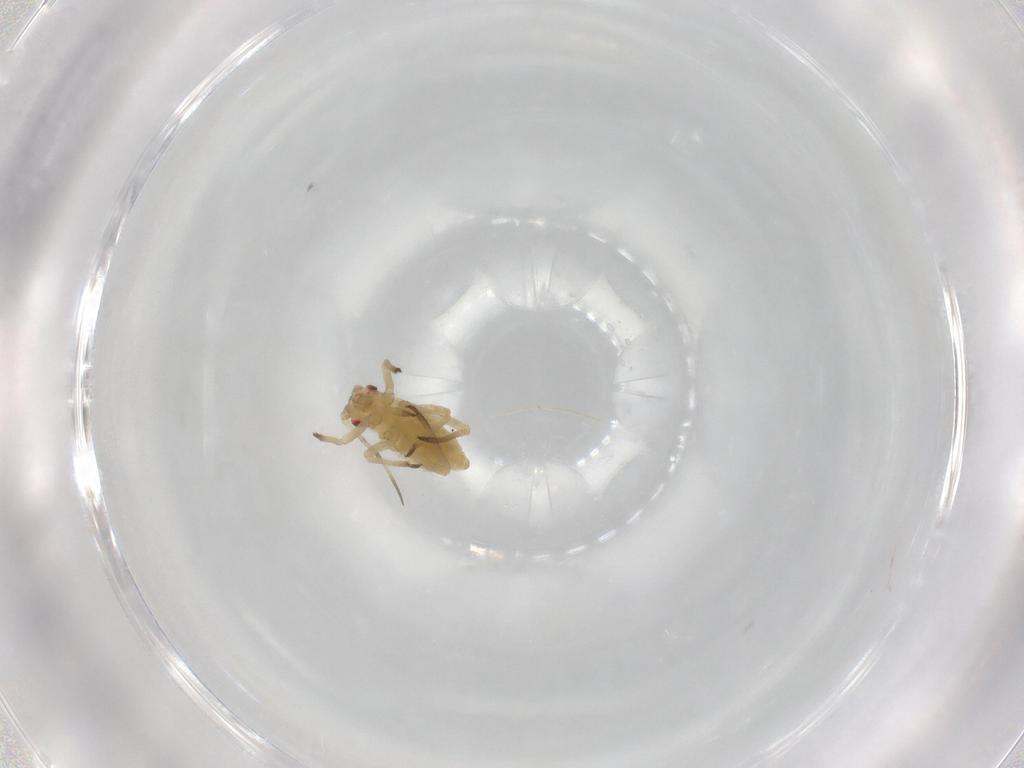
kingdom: Animalia
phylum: Arthropoda
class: Insecta
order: Hemiptera
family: Aphididae
